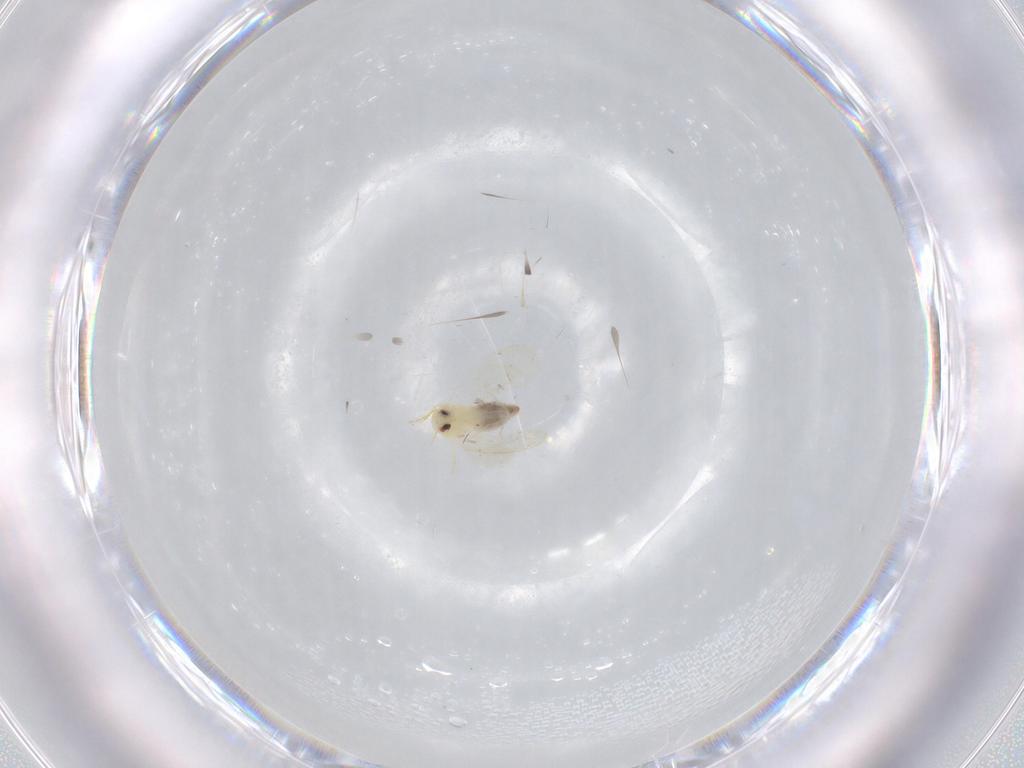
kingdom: Animalia
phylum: Arthropoda
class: Insecta
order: Hemiptera
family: Aleyrodidae
